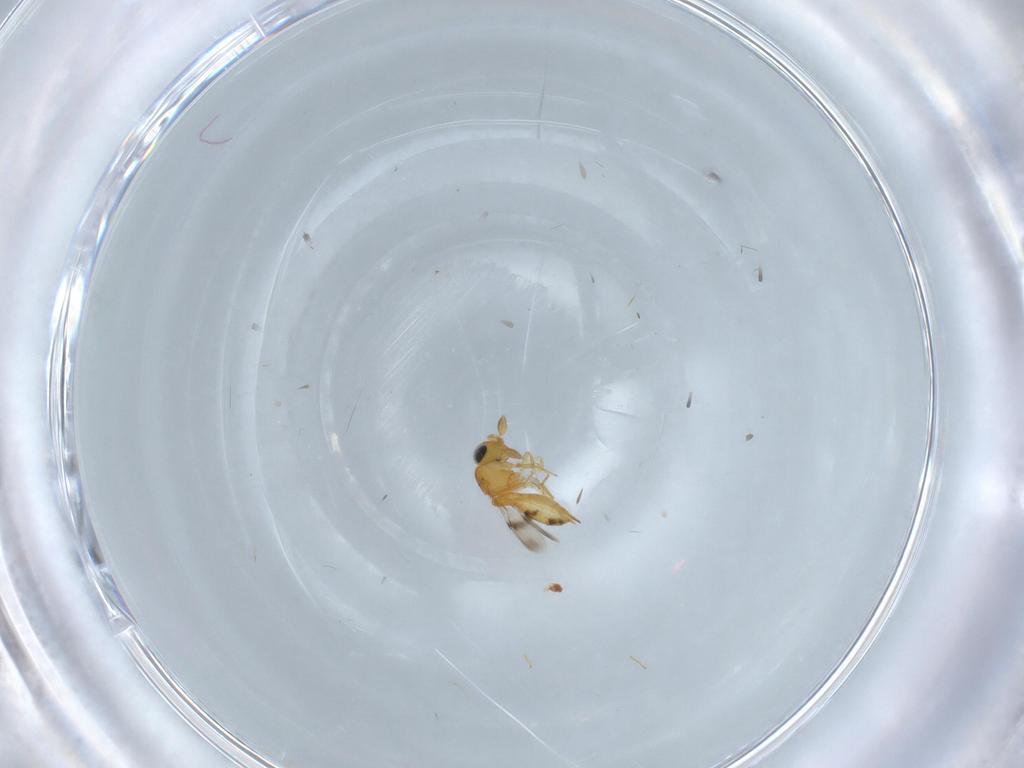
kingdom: Animalia
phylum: Arthropoda
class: Insecta
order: Hymenoptera
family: Scelionidae
